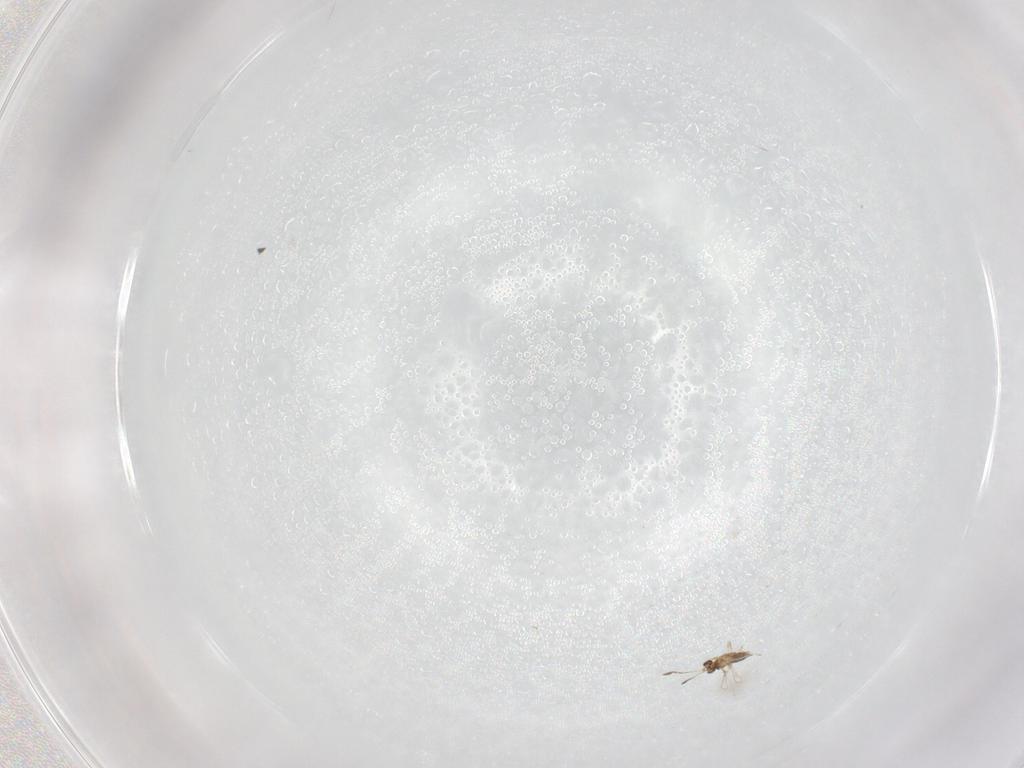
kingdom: Animalia
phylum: Arthropoda
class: Insecta
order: Hymenoptera
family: Mymaridae
